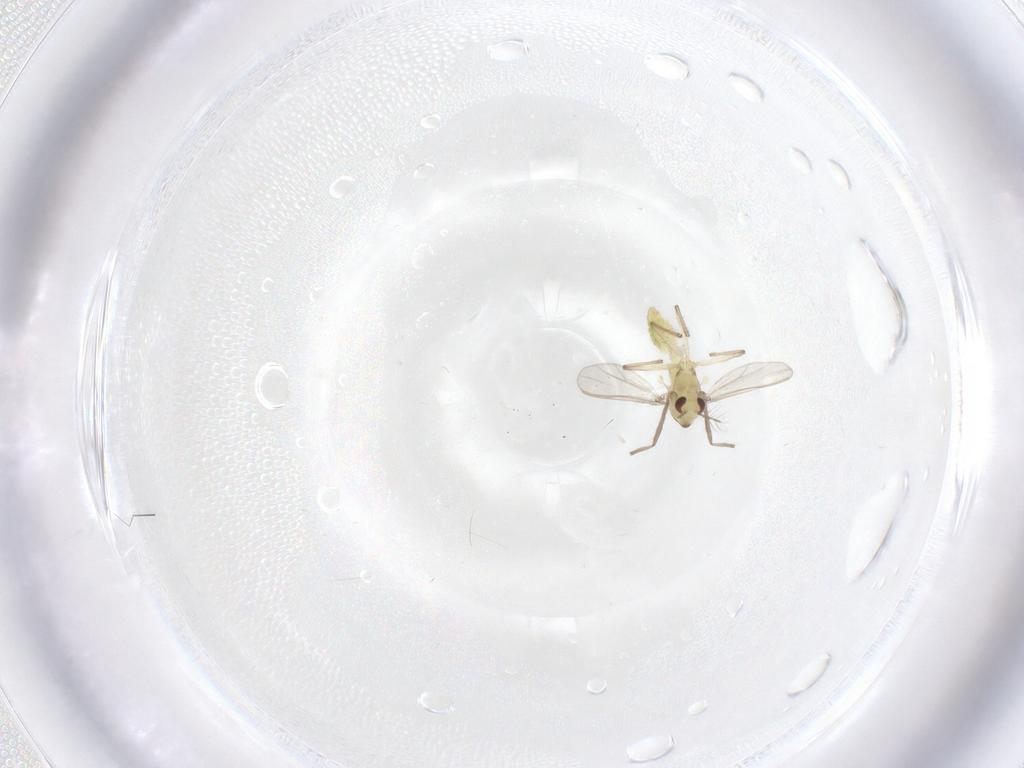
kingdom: Animalia
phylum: Arthropoda
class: Insecta
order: Diptera
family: Chironomidae
